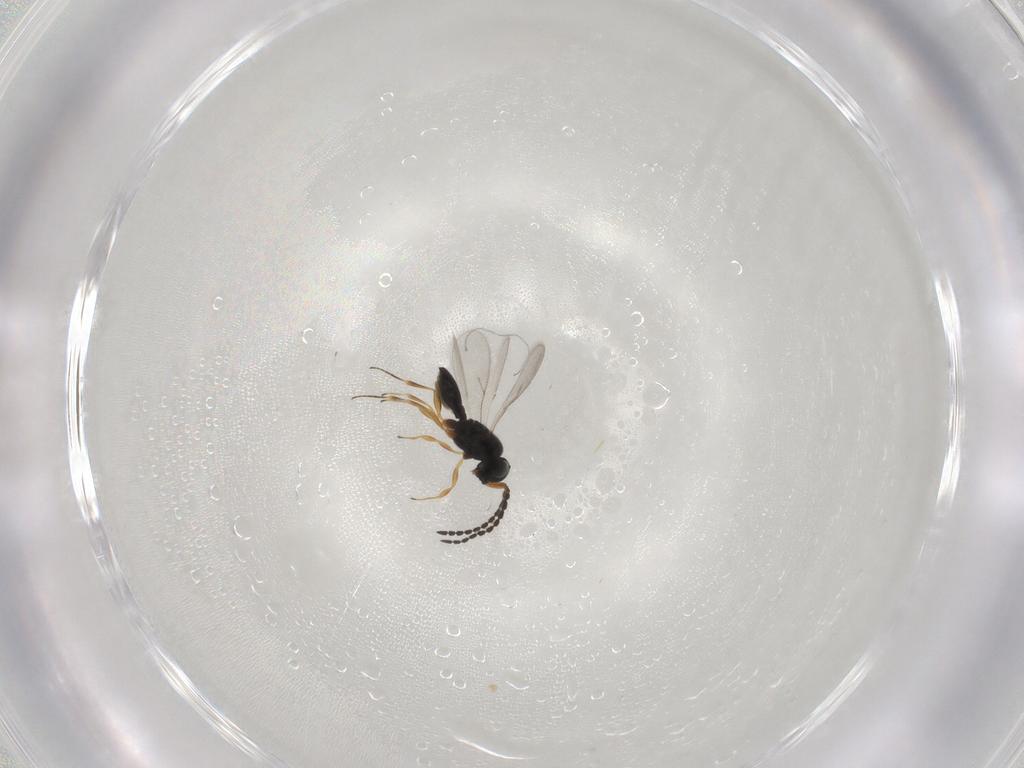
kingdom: Animalia
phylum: Arthropoda
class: Insecta
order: Hymenoptera
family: Scelionidae
